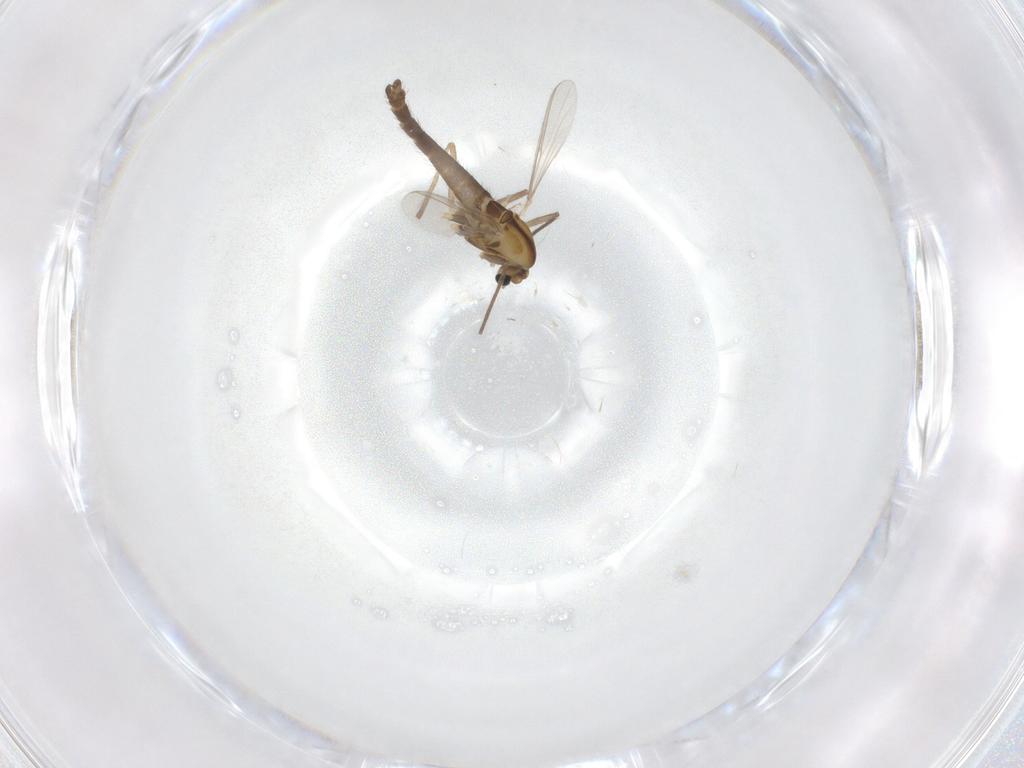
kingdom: Animalia
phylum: Arthropoda
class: Insecta
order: Diptera
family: Chironomidae
